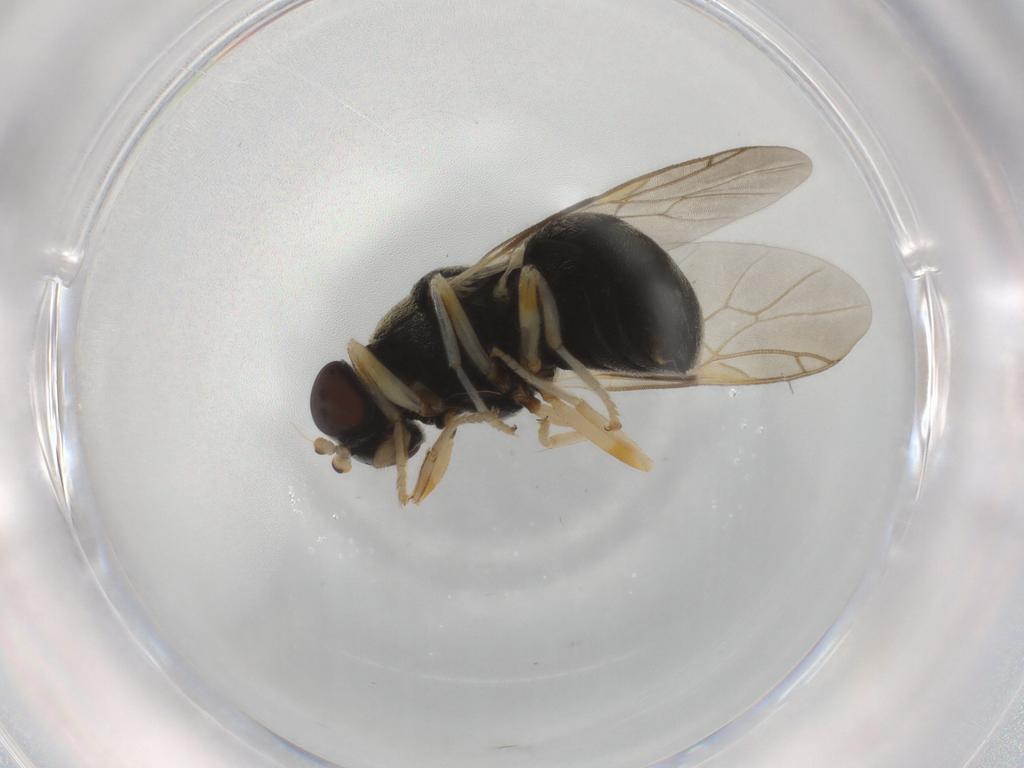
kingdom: Animalia
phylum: Arthropoda
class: Insecta
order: Diptera
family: Stratiomyidae
